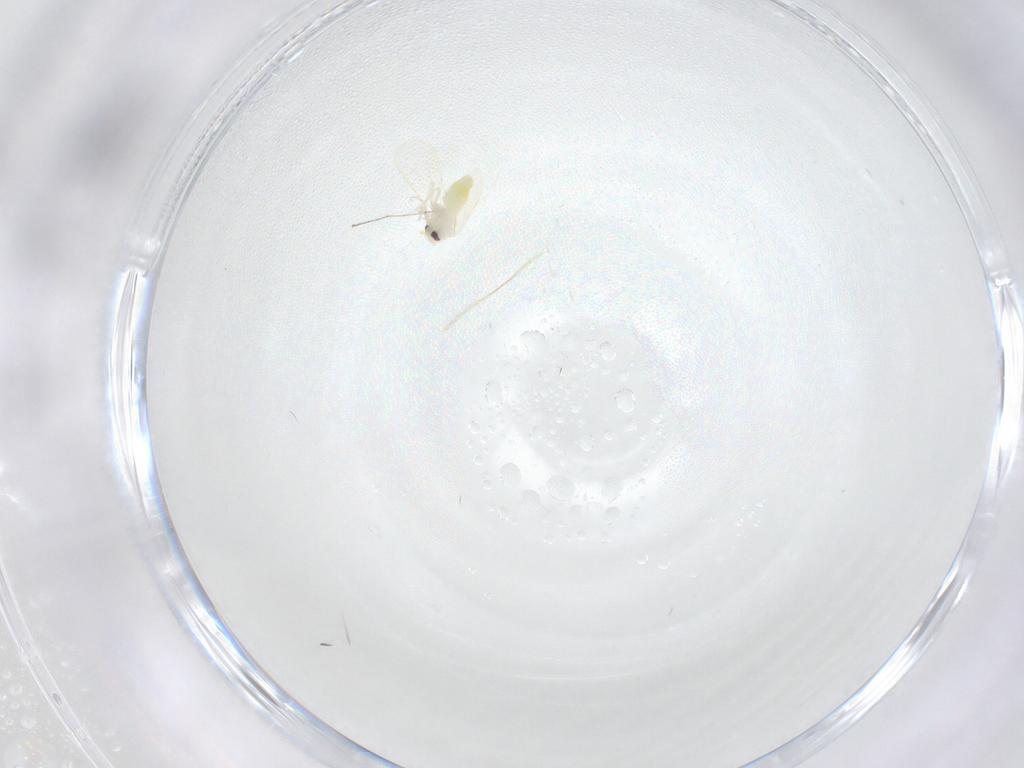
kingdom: Animalia
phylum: Arthropoda
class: Insecta
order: Diptera
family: Cecidomyiidae
